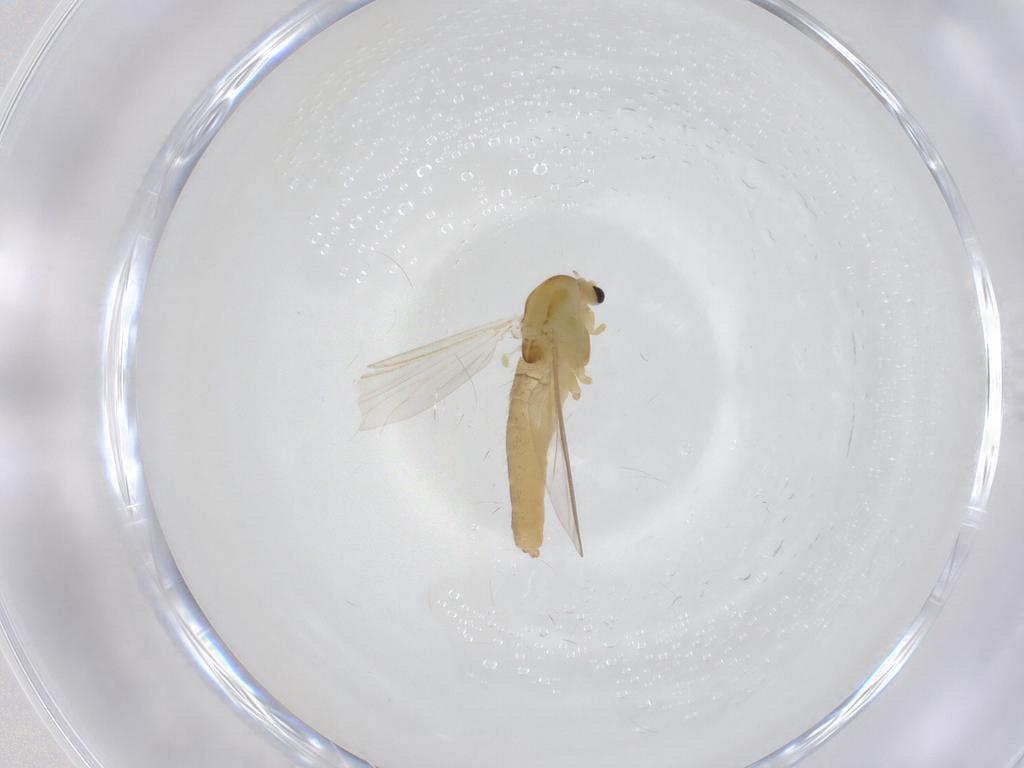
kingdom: Animalia
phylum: Arthropoda
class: Insecta
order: Diptera
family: Chironomidae
